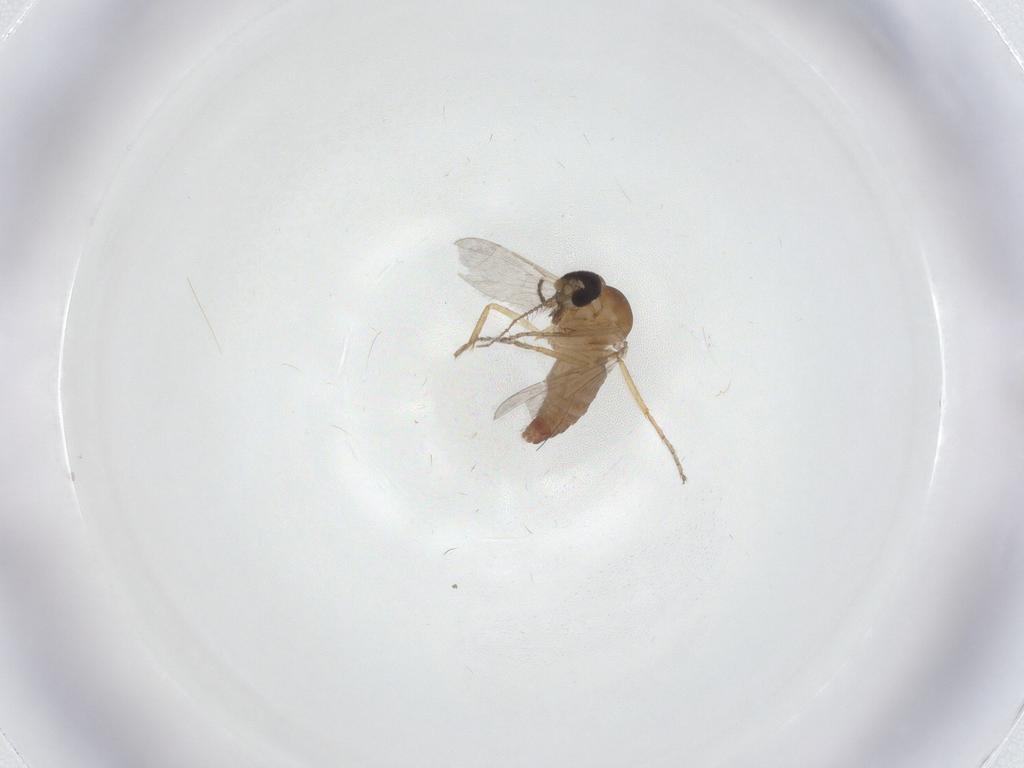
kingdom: Animalia
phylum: Arthropoda
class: Insecta
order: Diptera
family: Ceratopogonidae
